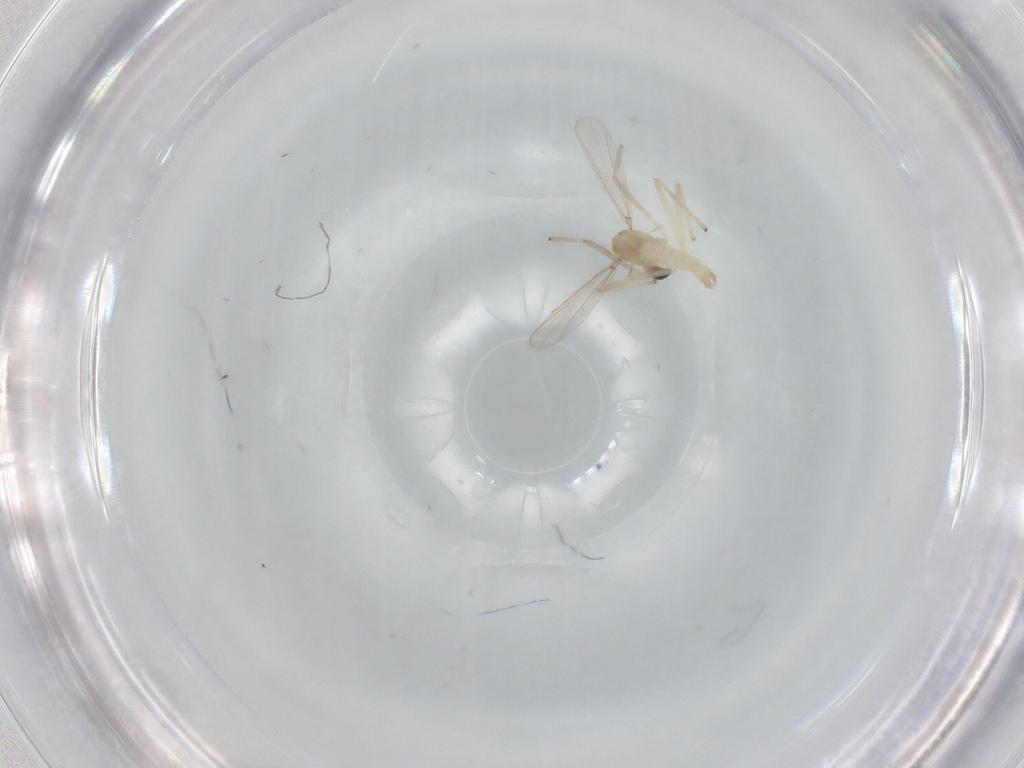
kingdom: Animalia
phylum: Arthropoda
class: Insecta
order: Diptera
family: Chironomidae
